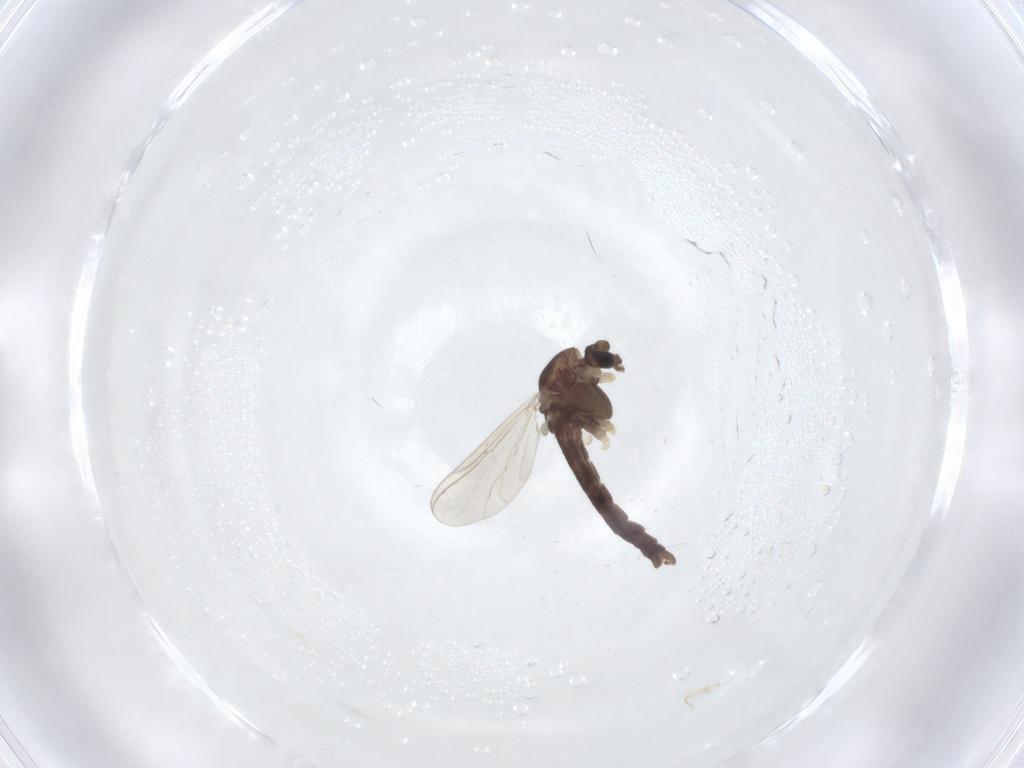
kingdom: Animalia
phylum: Arthropoda
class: Insecta
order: Diptera
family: Chironomidae
